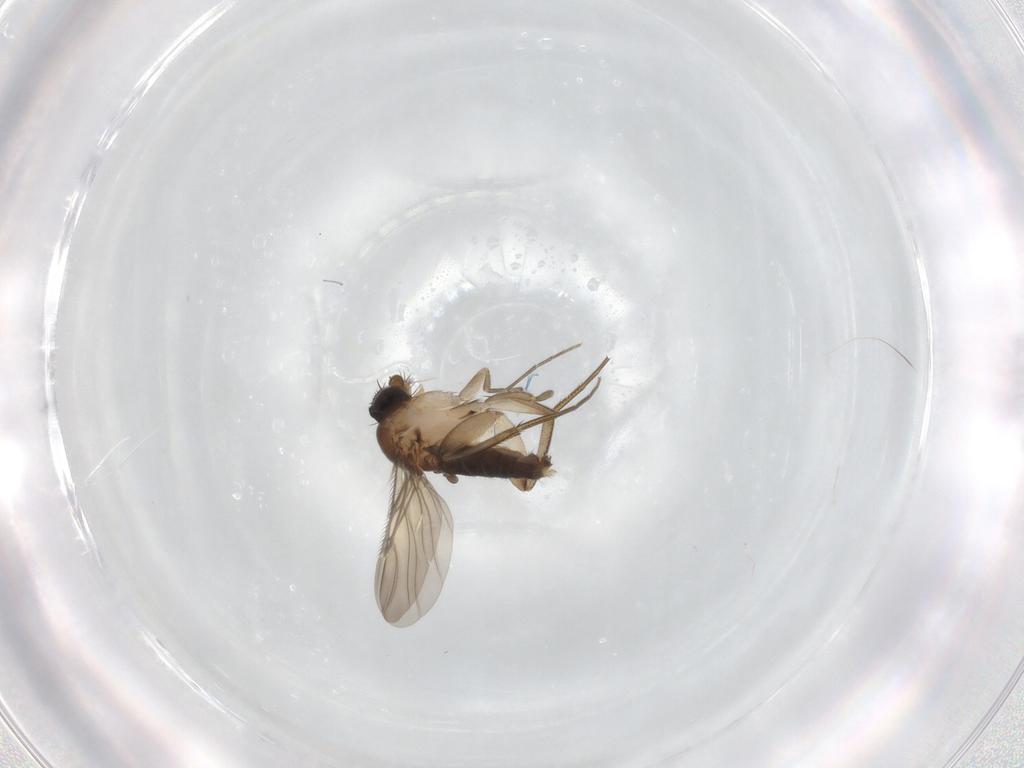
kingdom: Animalia
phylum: Arthropoda
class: Insecta
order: Diptera
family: Phoridae
